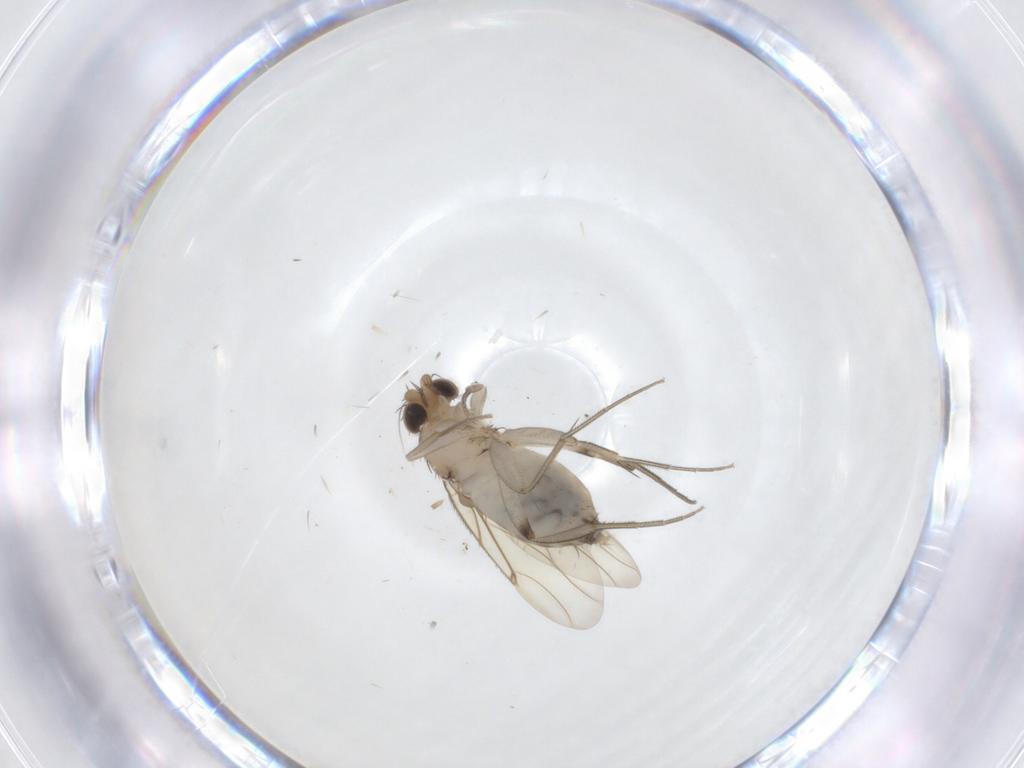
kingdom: Animalia
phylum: Arthropoda
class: Insecta
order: Diptera
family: Phoridae
